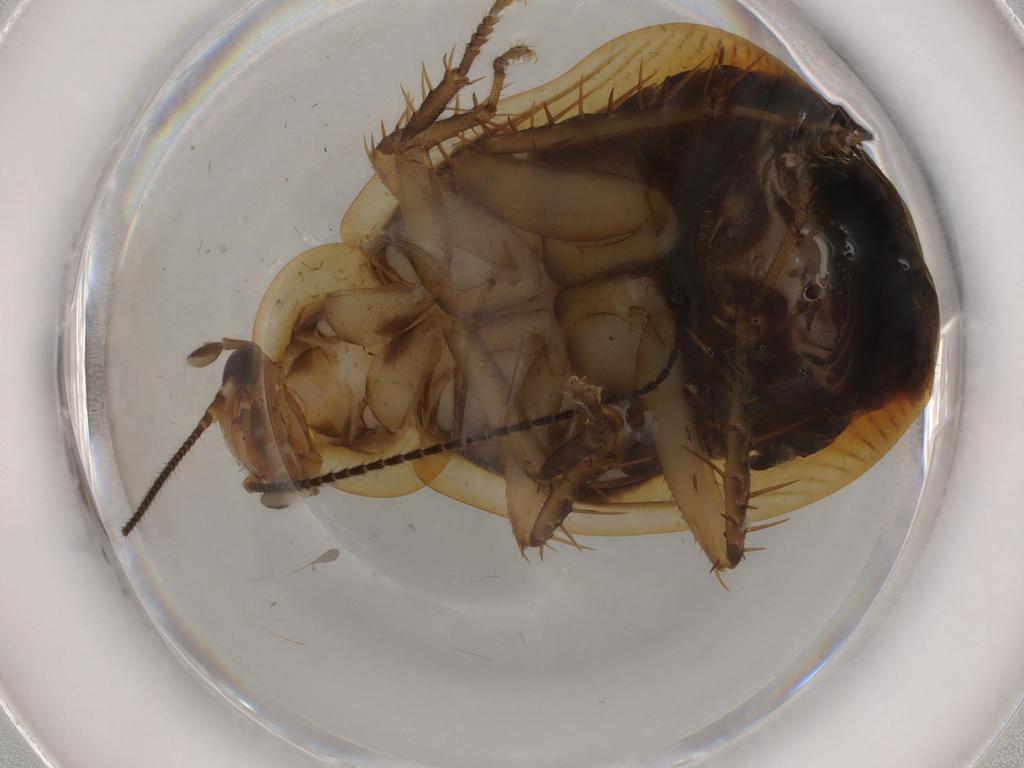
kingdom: Animalia
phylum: Arthropoda
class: Insecta
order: Blattodea
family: Ectobiidae
